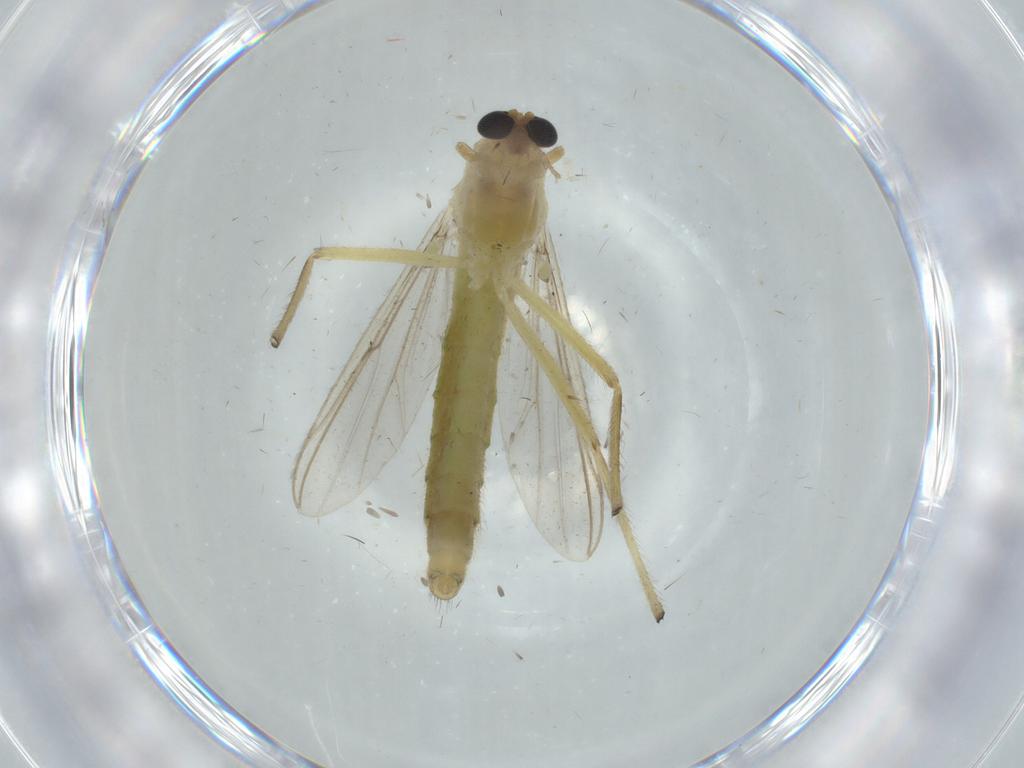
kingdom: Animalia
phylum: Arthropoda
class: Insecta
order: Diptera
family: Chironomidae
